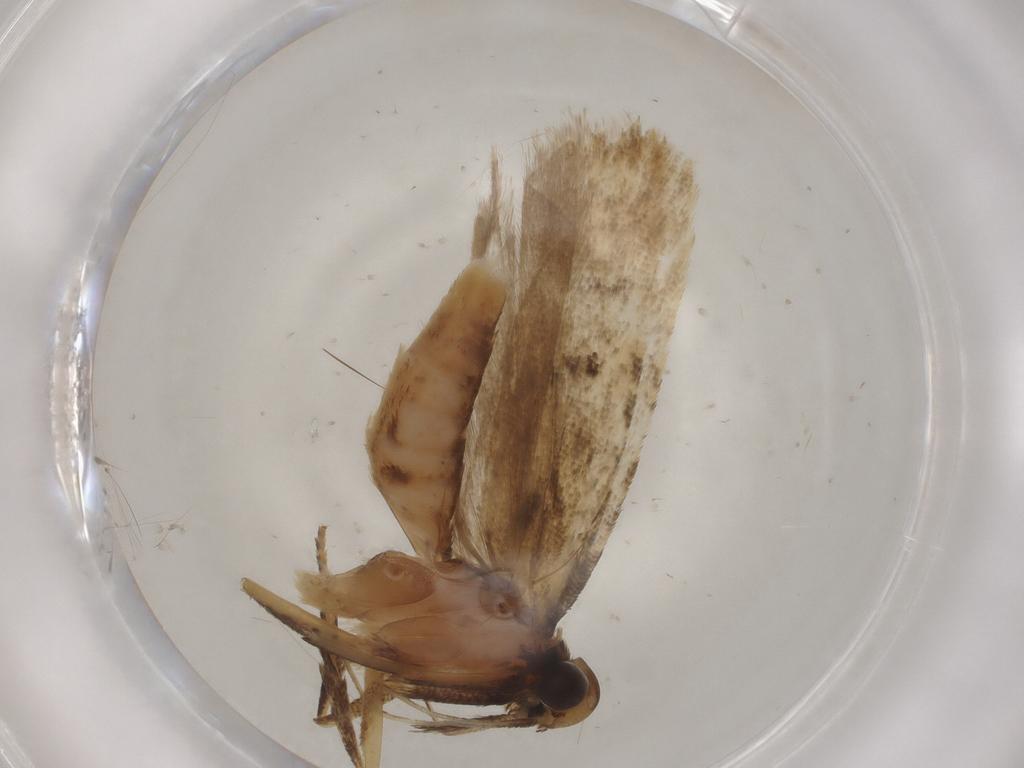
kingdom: Animalia
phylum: Arthropoda
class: Insecta
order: Lepidoptera
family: Gelechiidae
